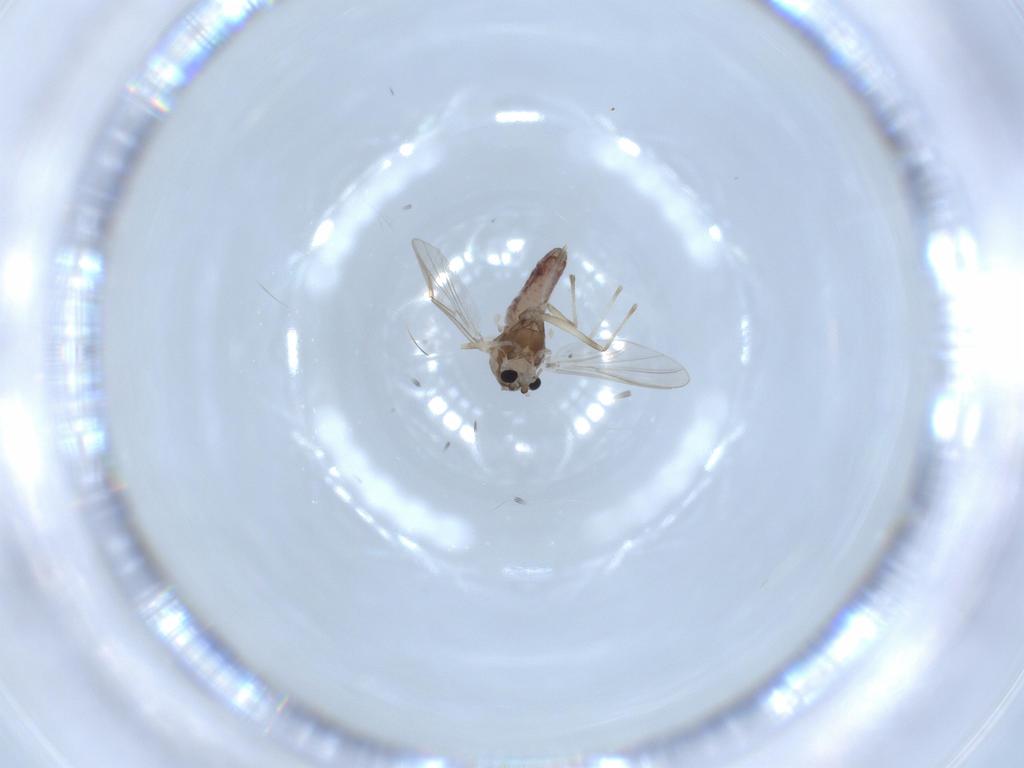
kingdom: Animalia
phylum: Arthropoda
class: Insecta
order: Diptera
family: Chironomidae
